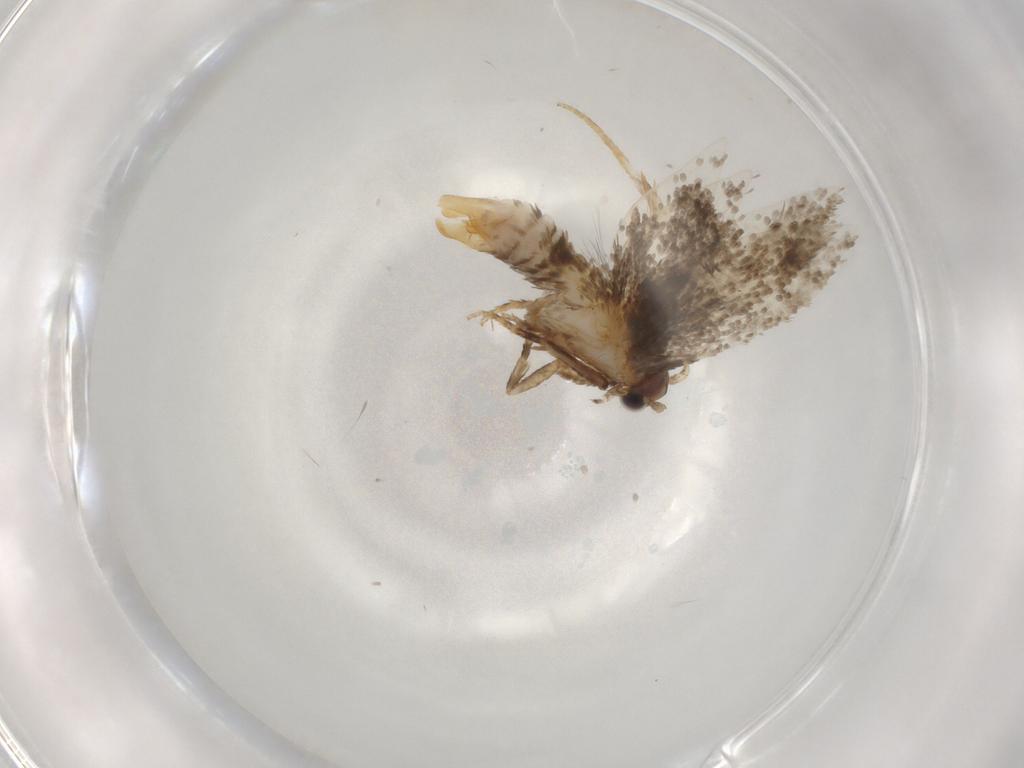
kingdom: Animalia
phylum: Arthropoda
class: Insecta
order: Lepidoptera
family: Tineidae
